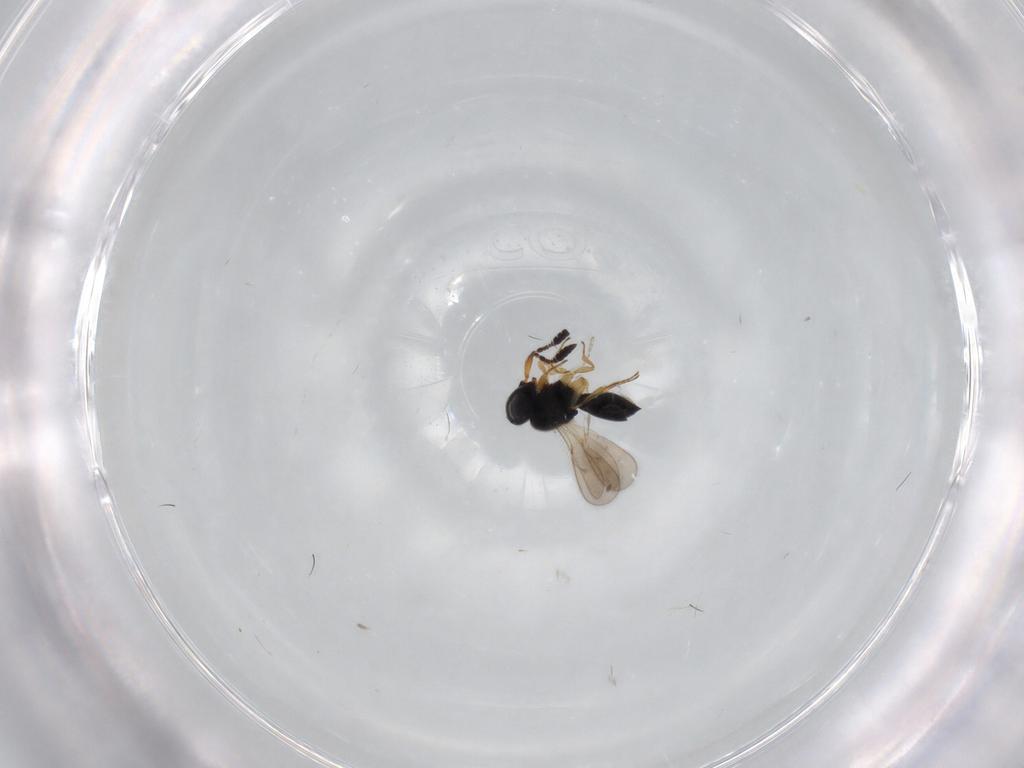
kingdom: Animalia
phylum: Arthropoda
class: Insecta
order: Hymenoptera
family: Scelionidae
